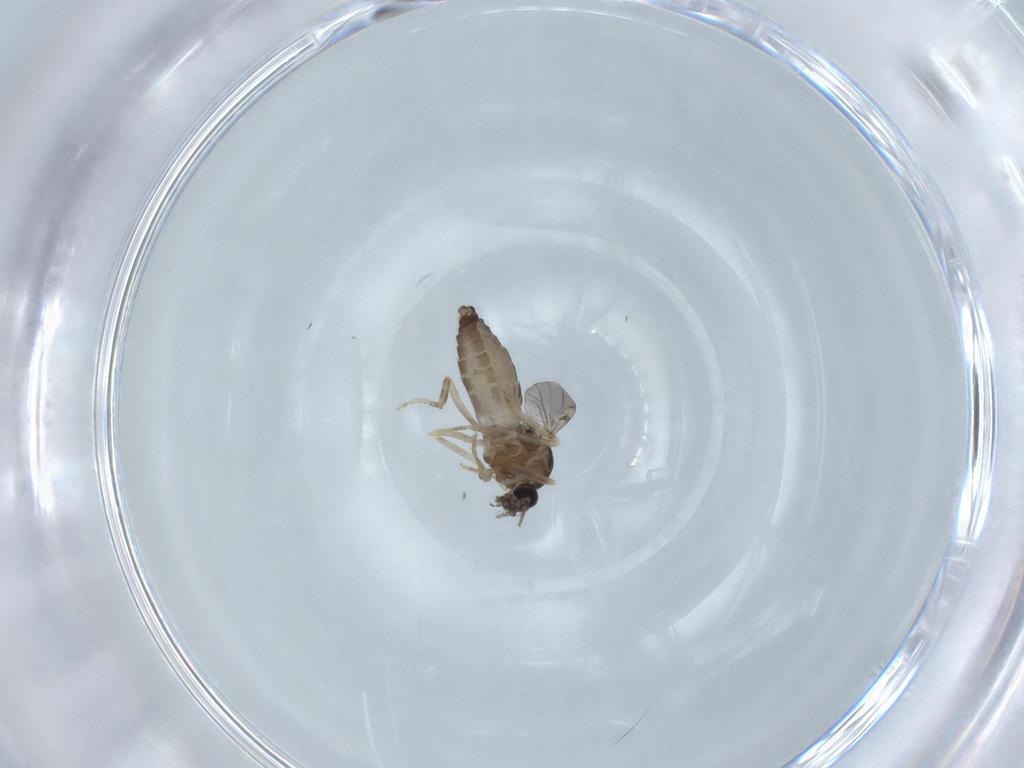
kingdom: Animalia
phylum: Arthropoda
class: Insecta
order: Diptera
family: Ceratopogonidae
